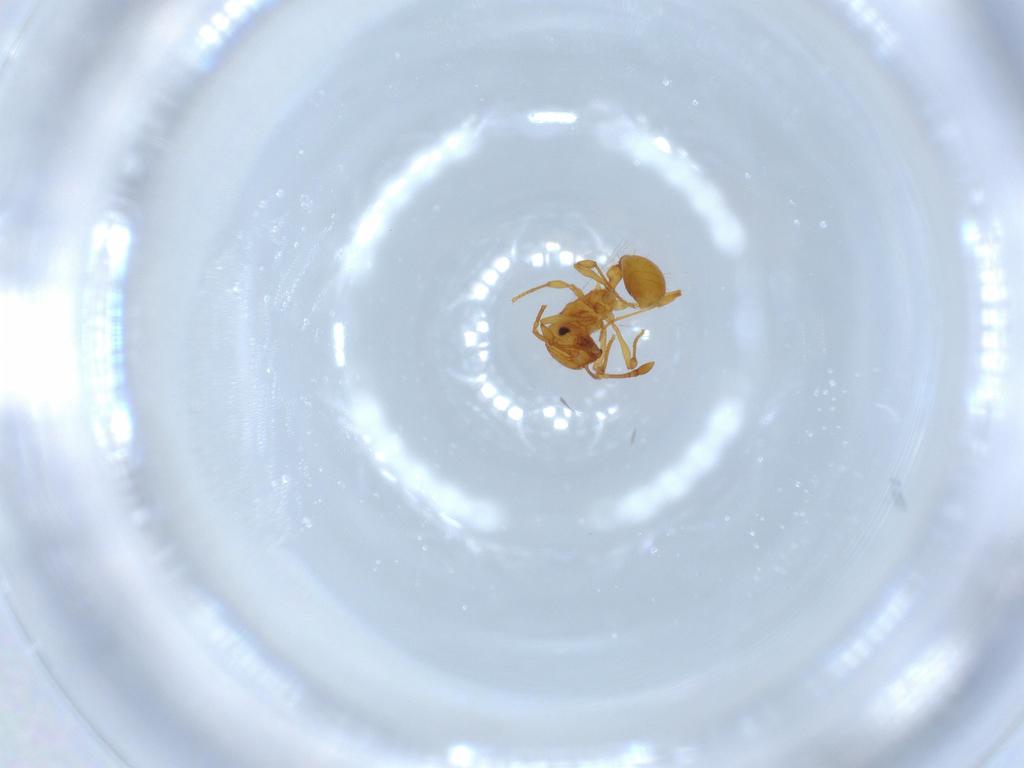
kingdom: Animalia
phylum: Arthropoda
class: Insecta
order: Hymenoptera
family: Formicidae
